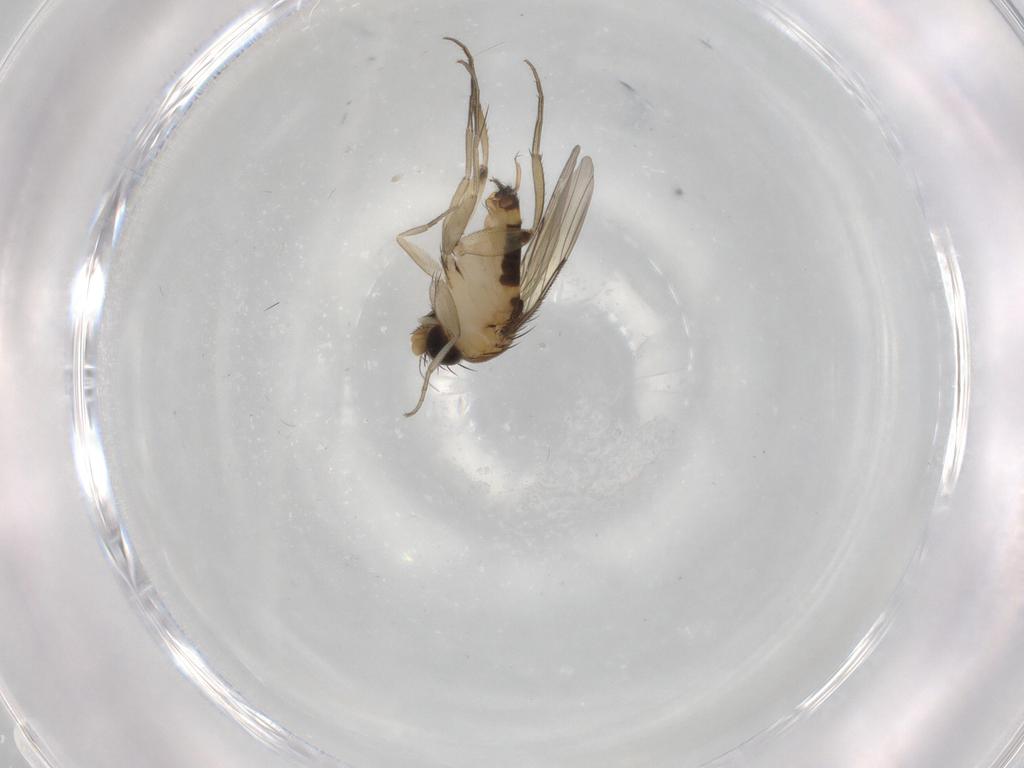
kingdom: Animalia
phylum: Arthropoda
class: Insecta
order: Diptera
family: Phoridae
